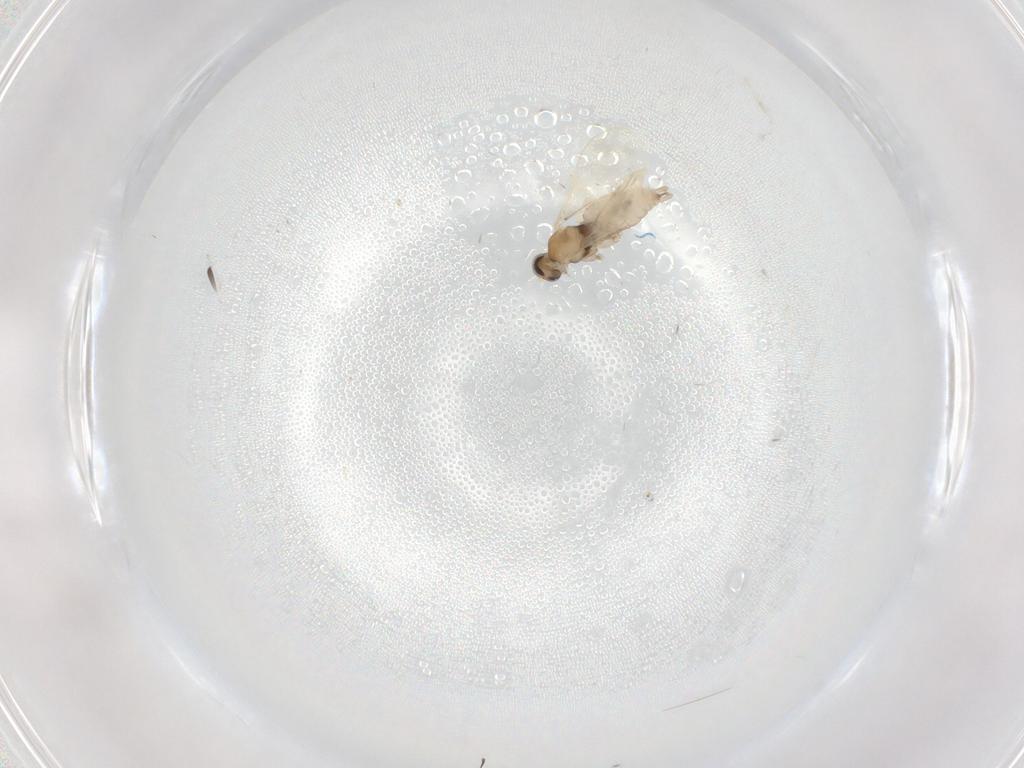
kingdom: Animalia
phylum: Arthropoda
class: Insecta
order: Diptera
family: Cecidomyiidae
